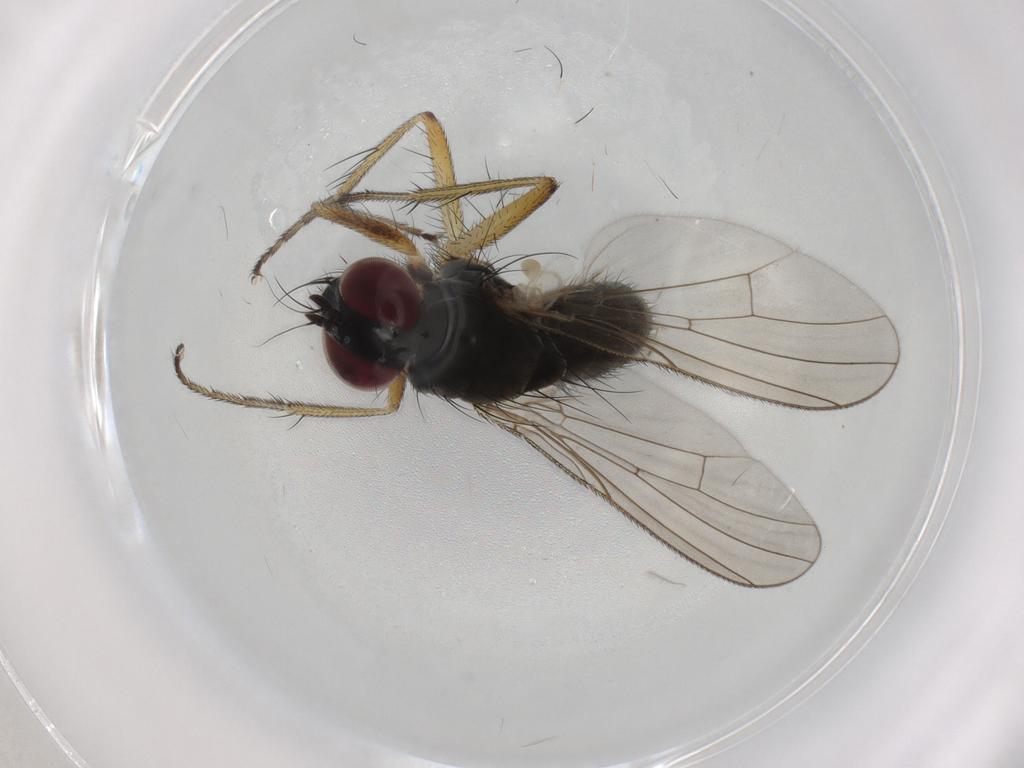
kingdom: Animalia
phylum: Arthropoda
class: Insecta
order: Diptera
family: Muscidae
